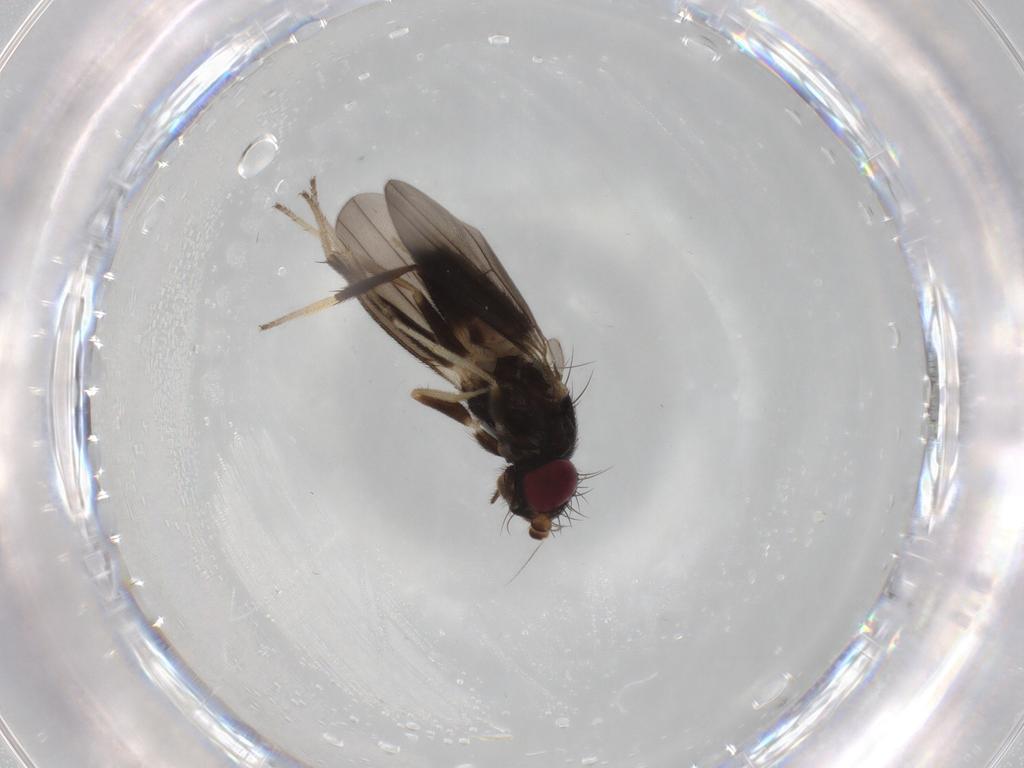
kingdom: Animalia
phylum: Arthropoda
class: Insecta
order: Diptera
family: Clusiidae
